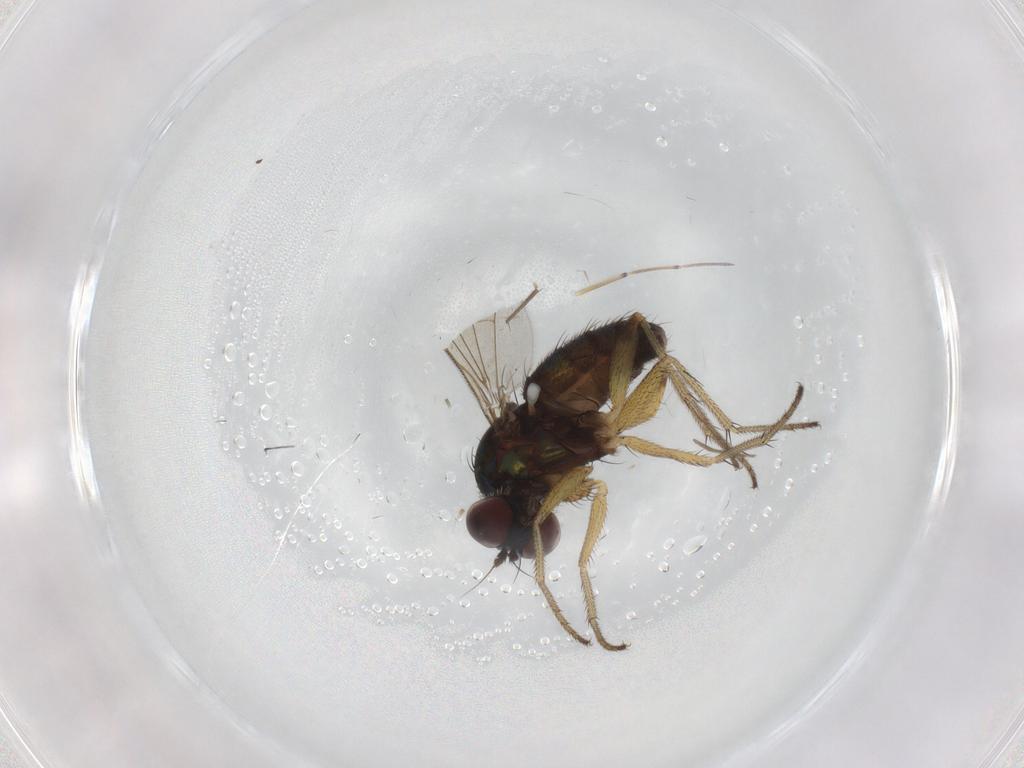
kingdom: Animalia
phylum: Arthropoda
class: Insecta
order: Diptera
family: Dolichopodidae
